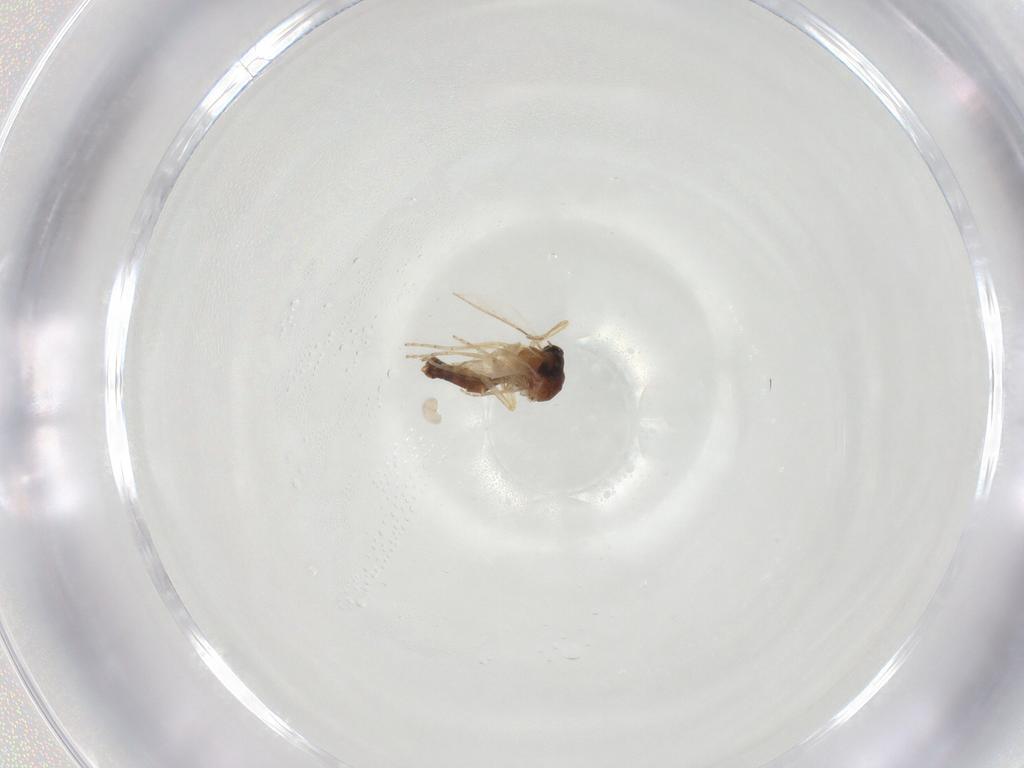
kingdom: Animalia
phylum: Arthropoda
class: Insecta
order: Diptera
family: Ceratopogonidae
